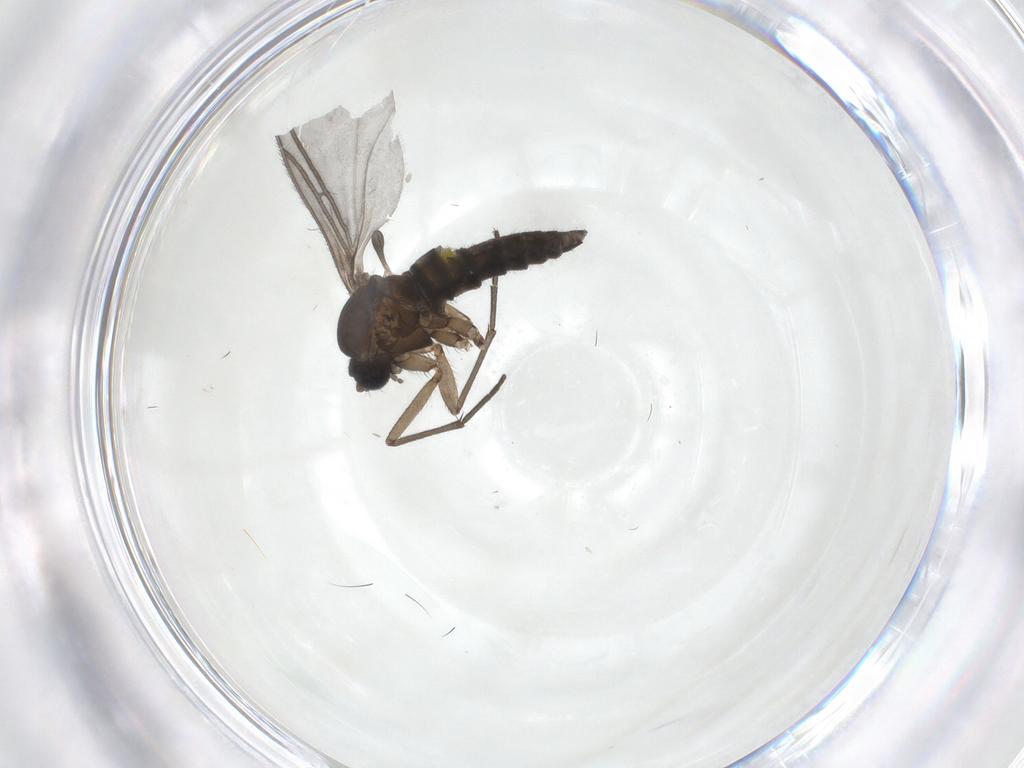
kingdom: Animalia
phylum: Arthropoda
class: Insecta
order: Diptera
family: Sciaridae
